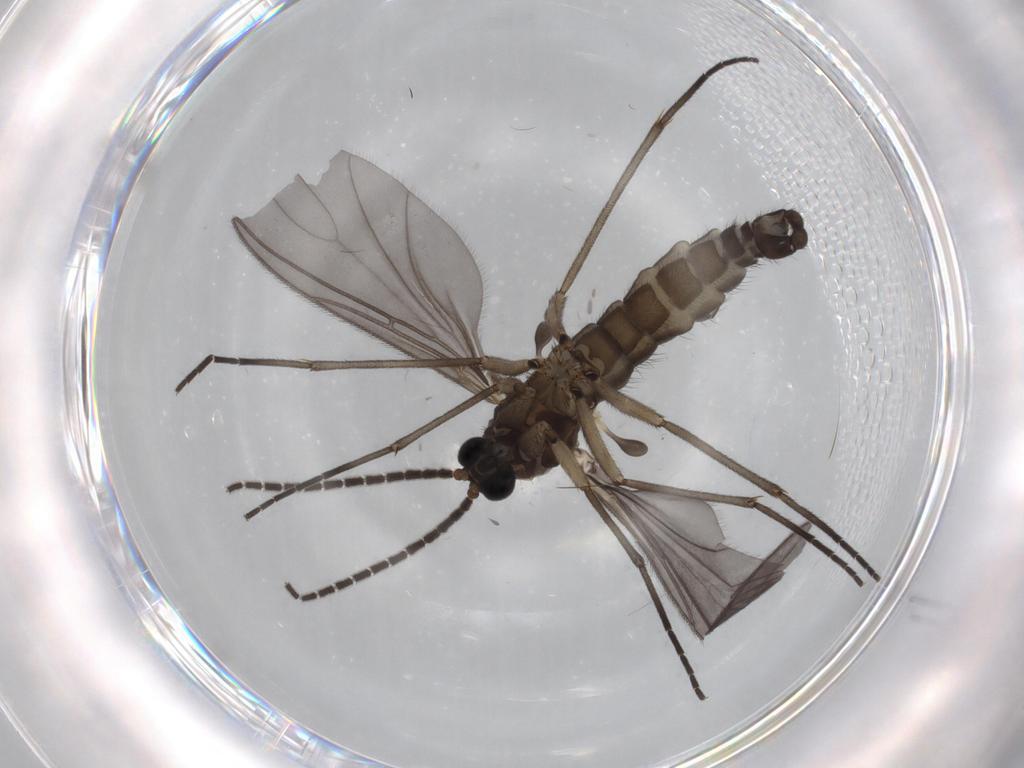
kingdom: Animalia
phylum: Arthropoda
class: Insecta
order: Diptera
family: Sciaridae
